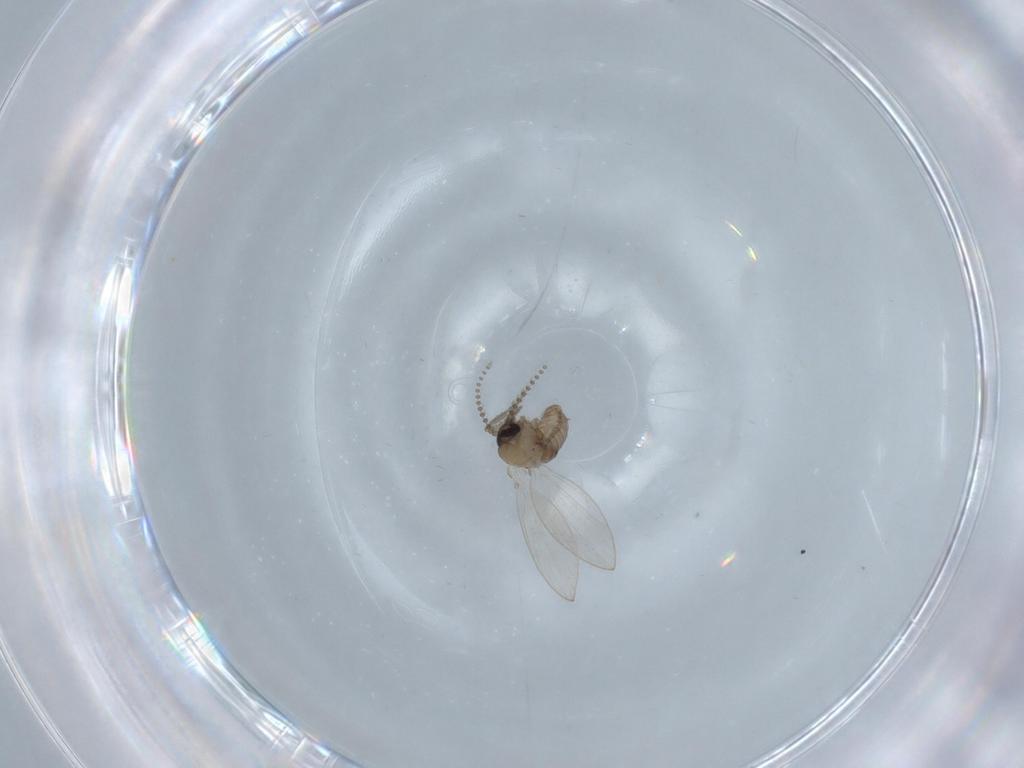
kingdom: Animalia
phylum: Arthropoda
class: Insecta
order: Diptera
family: Psychodidae
